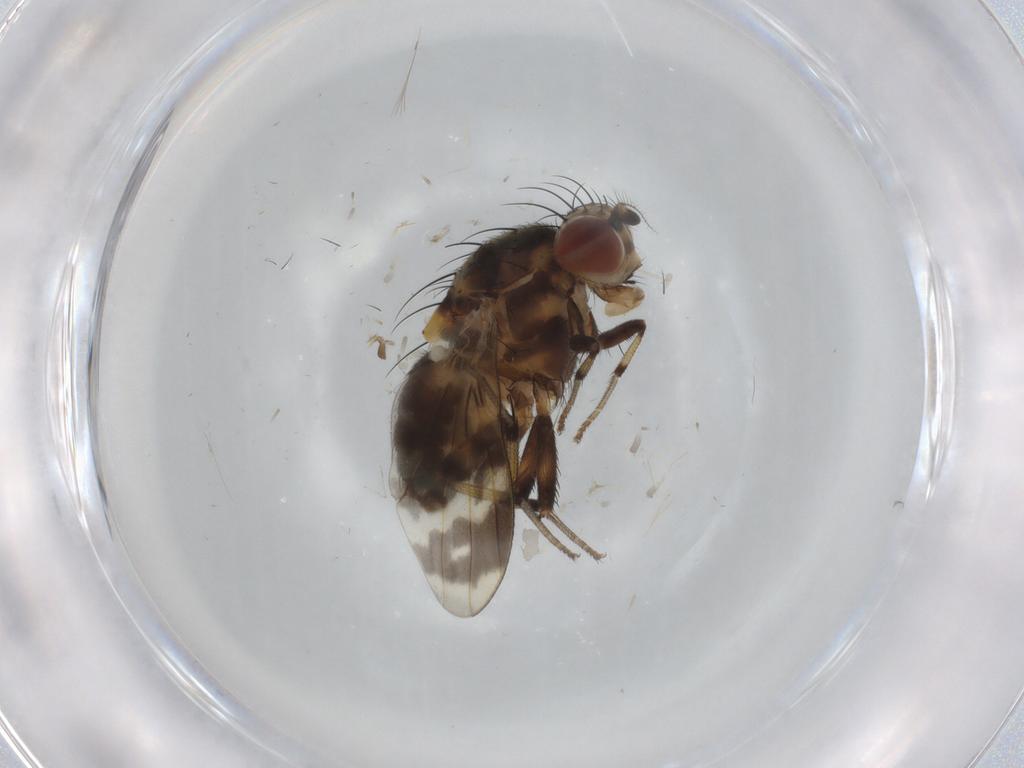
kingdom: Animalia
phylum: Arthropoda
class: Insecta
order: Diptera
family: Cecidomyiidae
